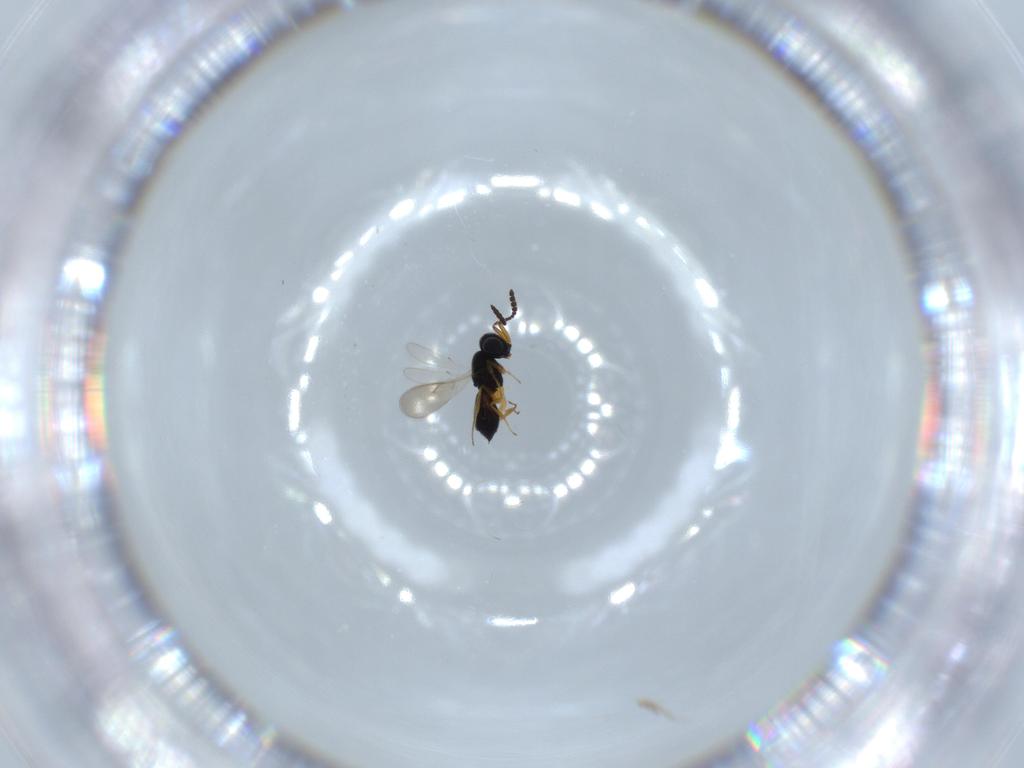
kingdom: Animalia
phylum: Arthropoda
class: Insecta
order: Hymenoptera
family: Scelionidae
